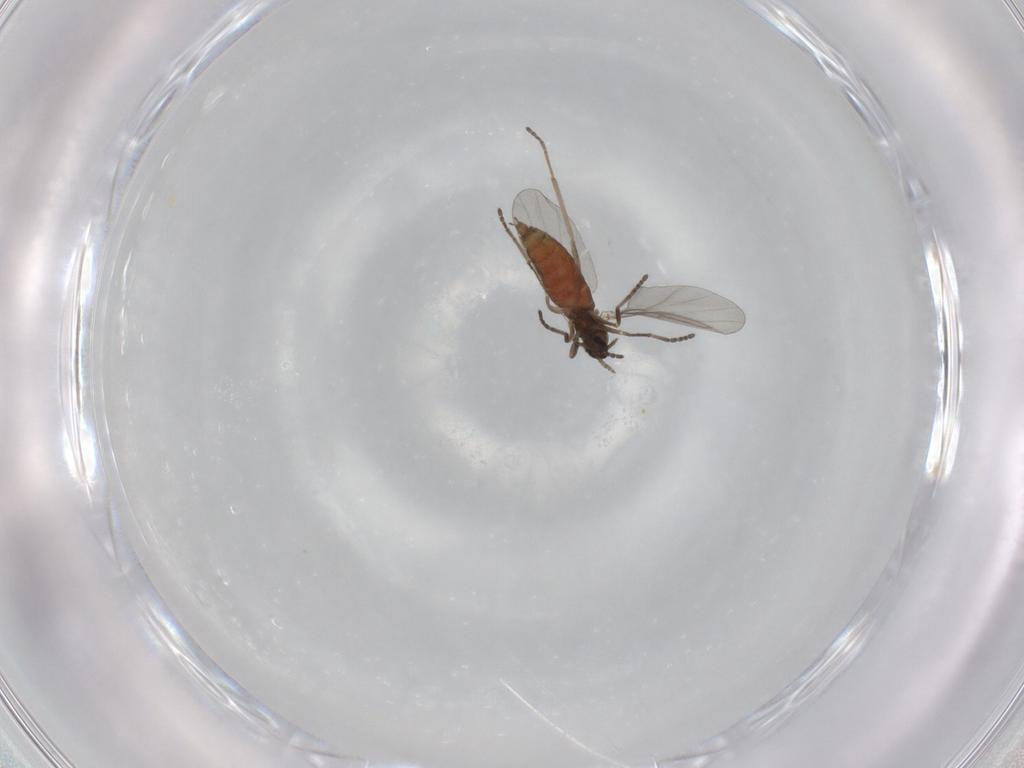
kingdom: Animalia
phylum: Arthropoda
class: Insecta
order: Diptera
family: Cecidomyiidae
